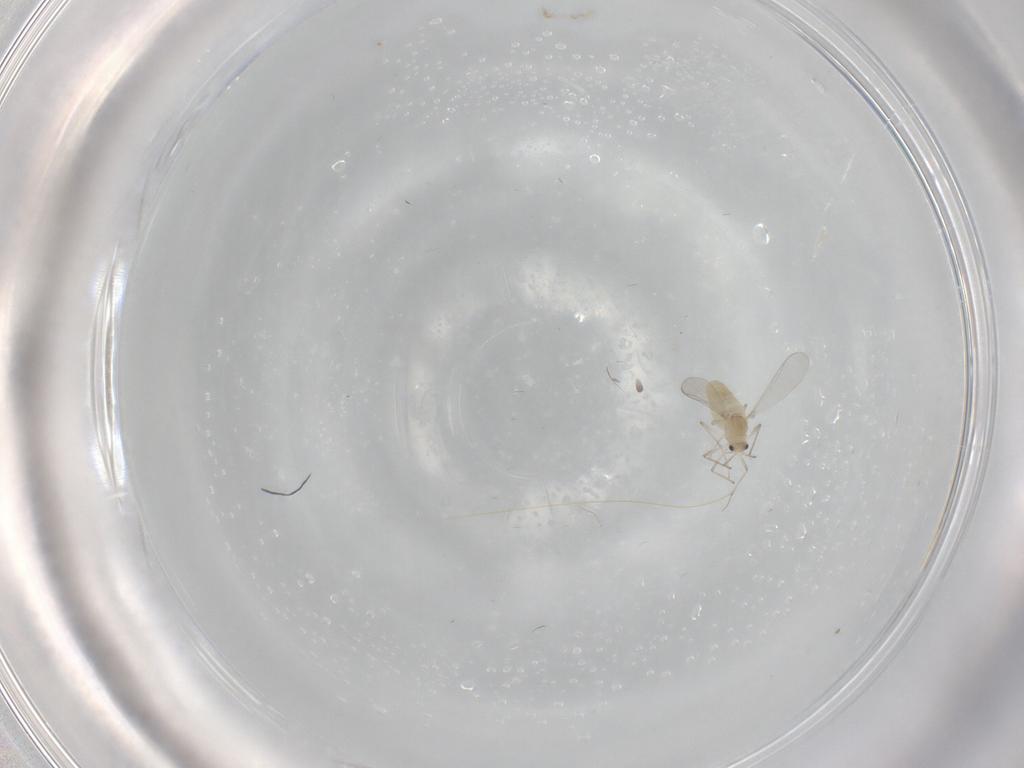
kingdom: Animalia
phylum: Arthropoda
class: Insecta
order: Diptera
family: Chironomidae
